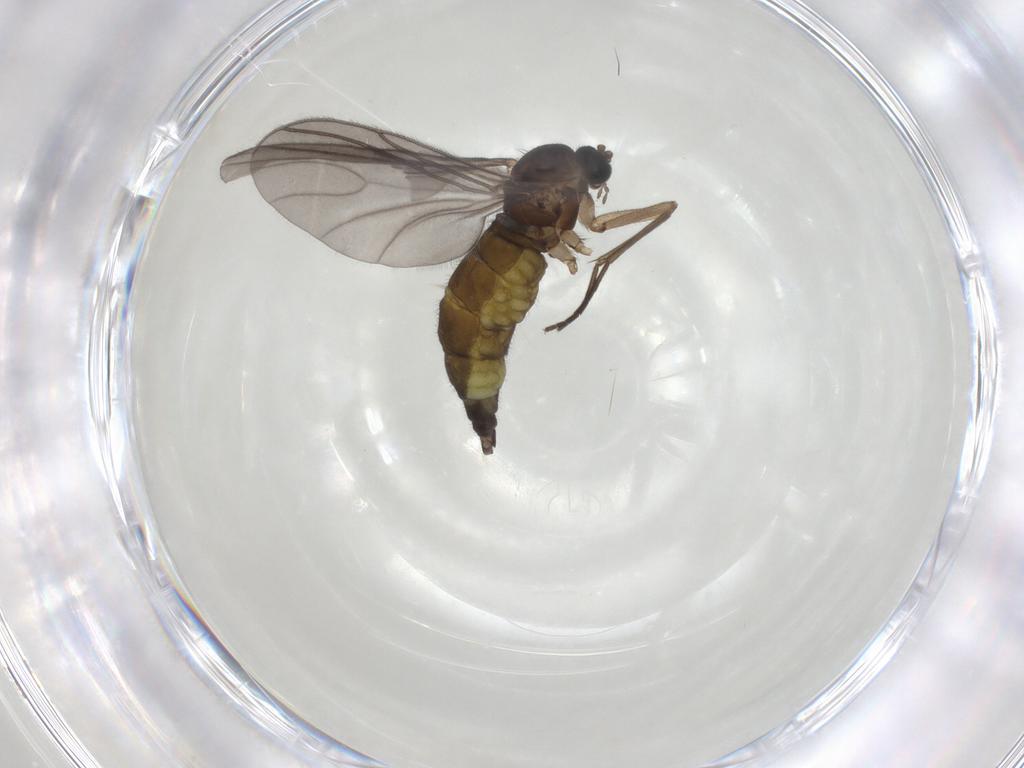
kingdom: Animalia
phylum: Arthropoda
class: Insecta
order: Diptera
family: Sciaridae
